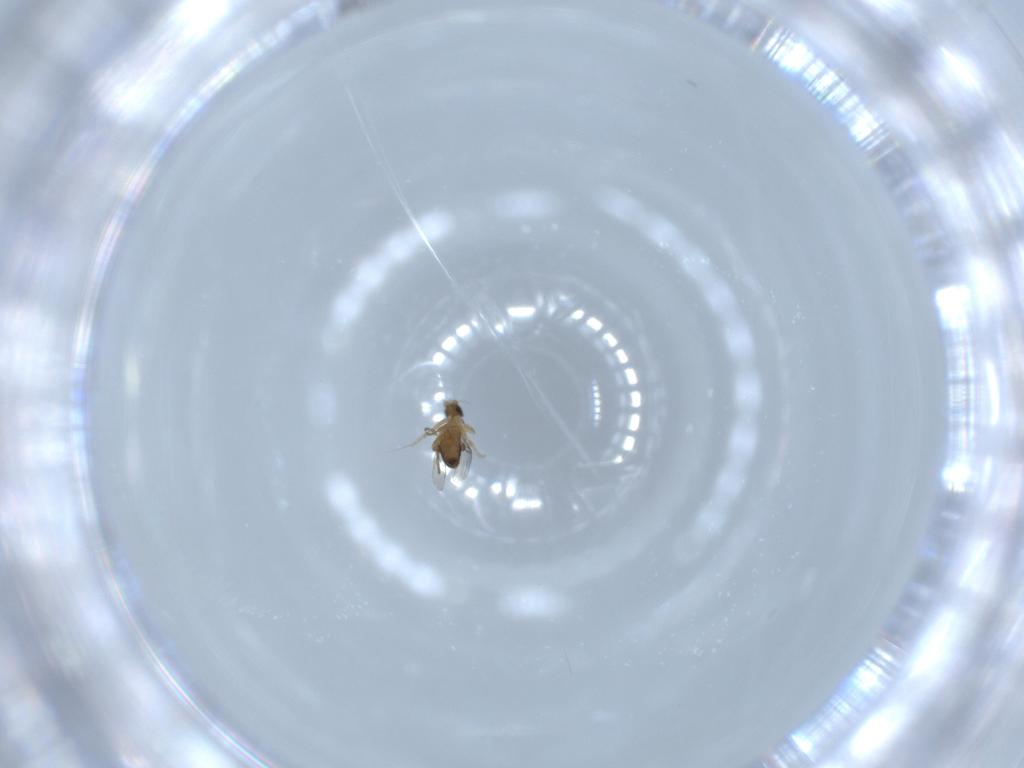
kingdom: Animalia
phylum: Arthropoda
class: Insecta
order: Diptera
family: Phoridae
